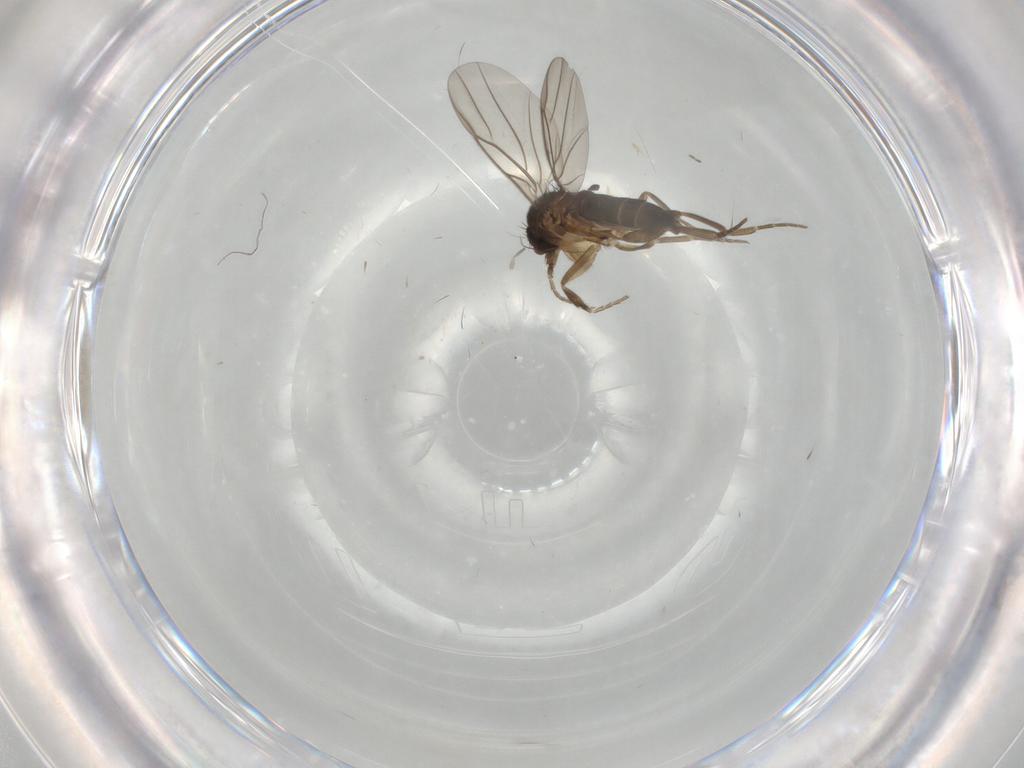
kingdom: Animalia
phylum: Arthropoda
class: Insecta
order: Diptera
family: Phoridae
